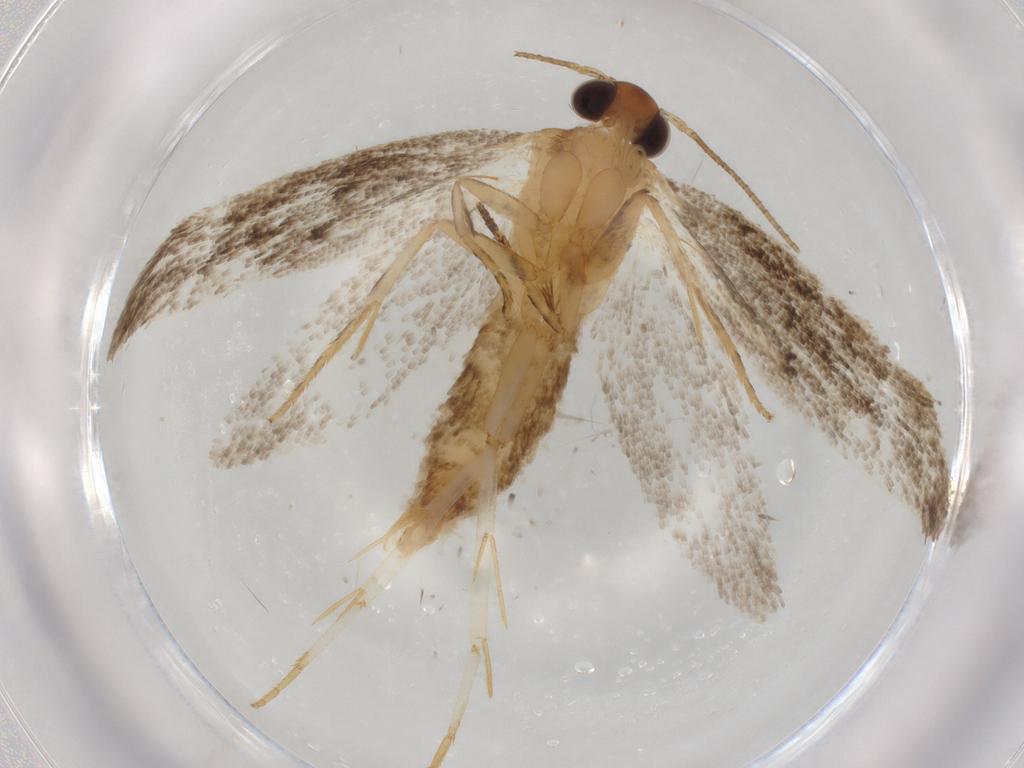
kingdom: Animalia
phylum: Arthropoda
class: Insecta
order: Lepidoptera
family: Oecophoridae
